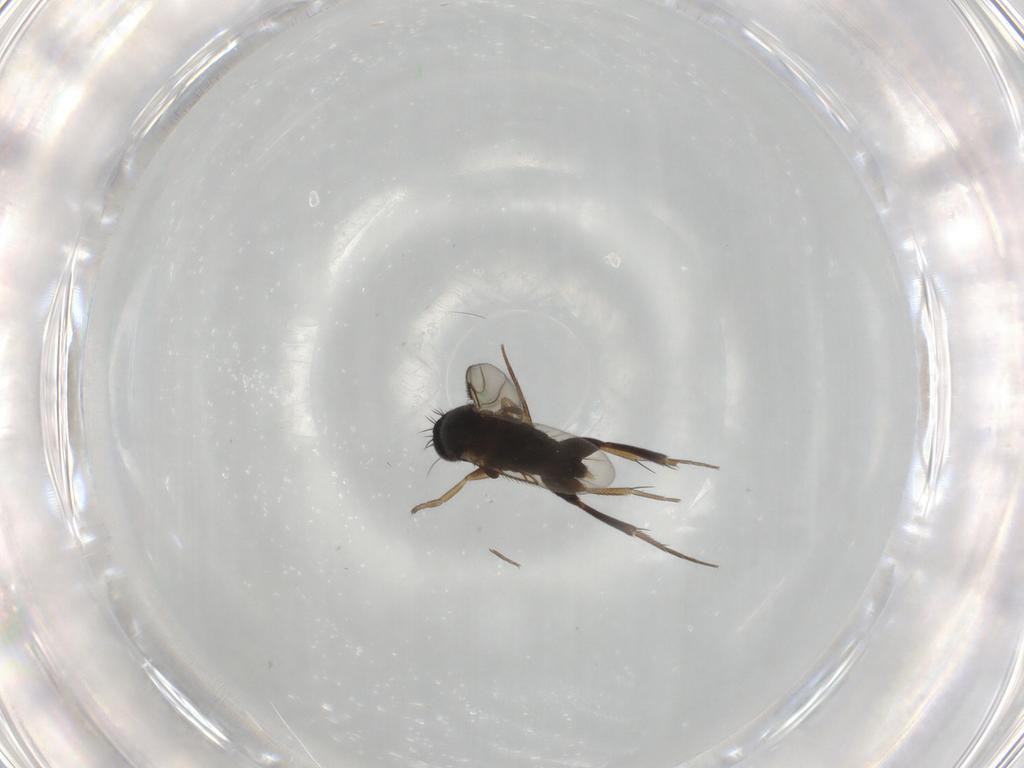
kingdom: Animalia
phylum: Arthropoda
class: Insecta
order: Diptera
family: Phoridae
